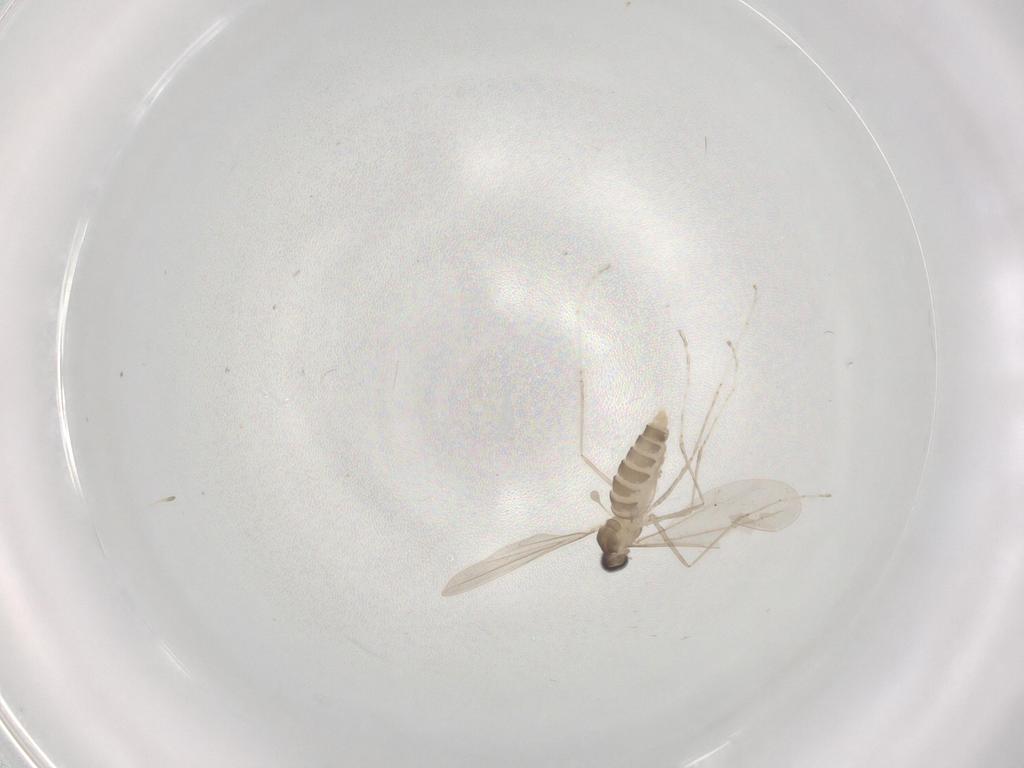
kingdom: Animalia
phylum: Arthropoda
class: Insecta
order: Diptera
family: Cecidomyiidae
